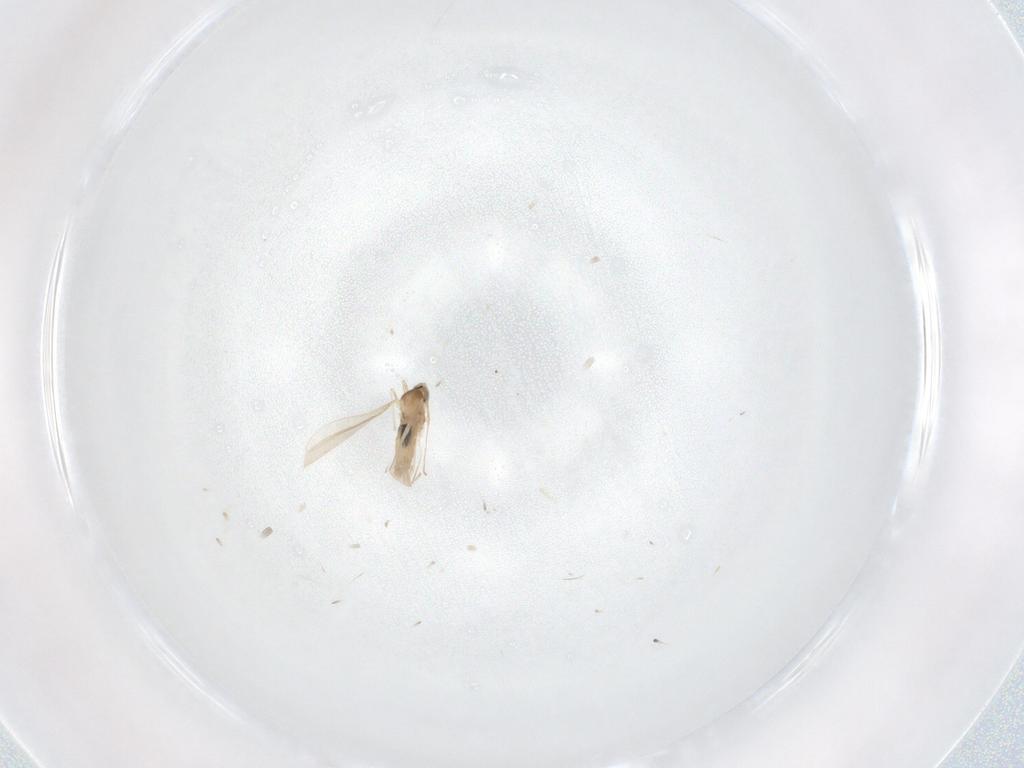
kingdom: Animalia
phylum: Arthropoda
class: Insecta
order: Diptera
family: Cecidomyiidae
